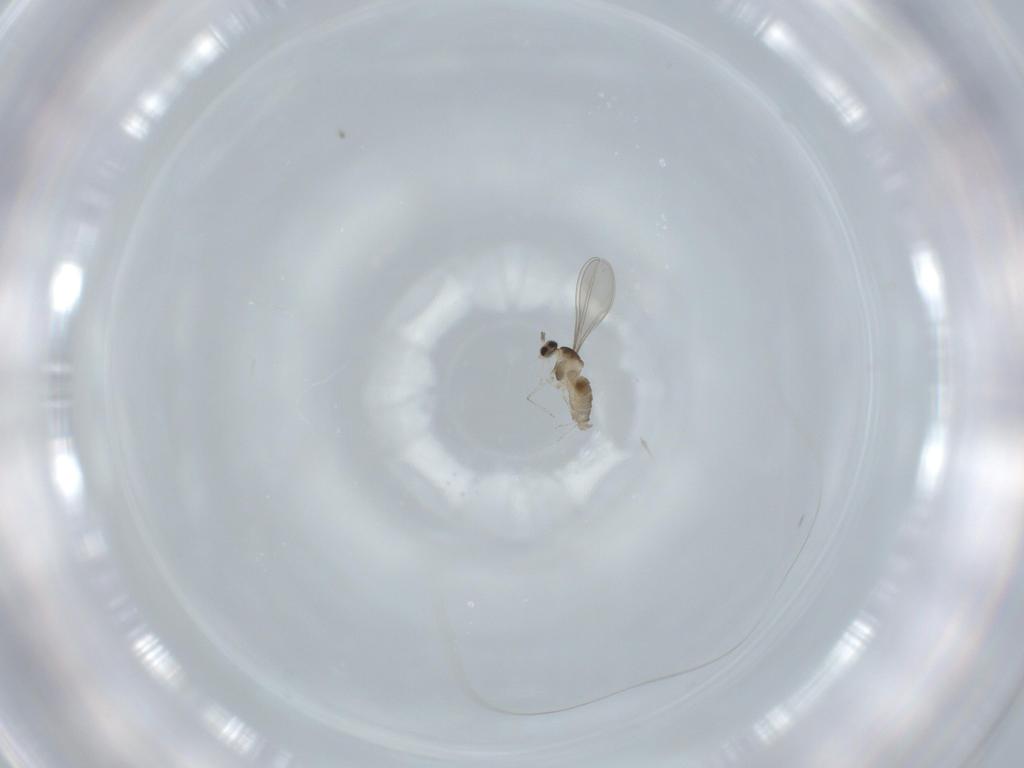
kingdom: Animalia
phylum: Arthropoda
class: Insecta
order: Diptera
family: Cecidomyiidae
